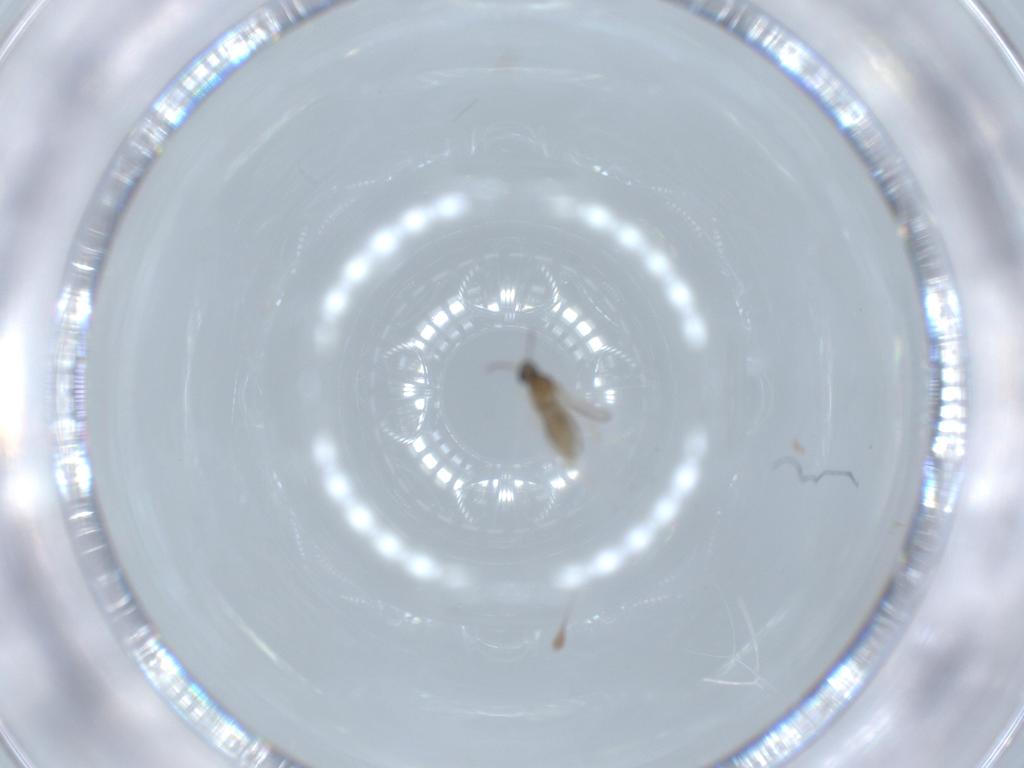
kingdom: Animalia
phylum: Arthropoda
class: Insecta
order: Diptera
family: Cecidomyiidae
